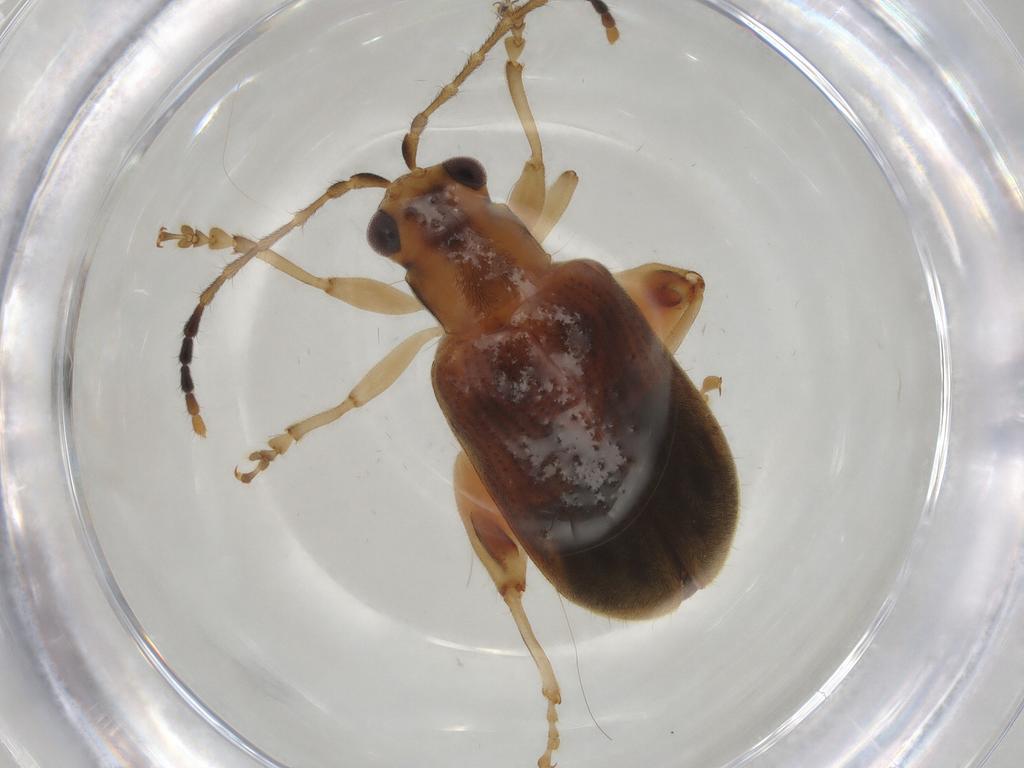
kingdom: Animalia
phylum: Arthropoda
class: Insecta
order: Coleoptera
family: Chrysomelidae
